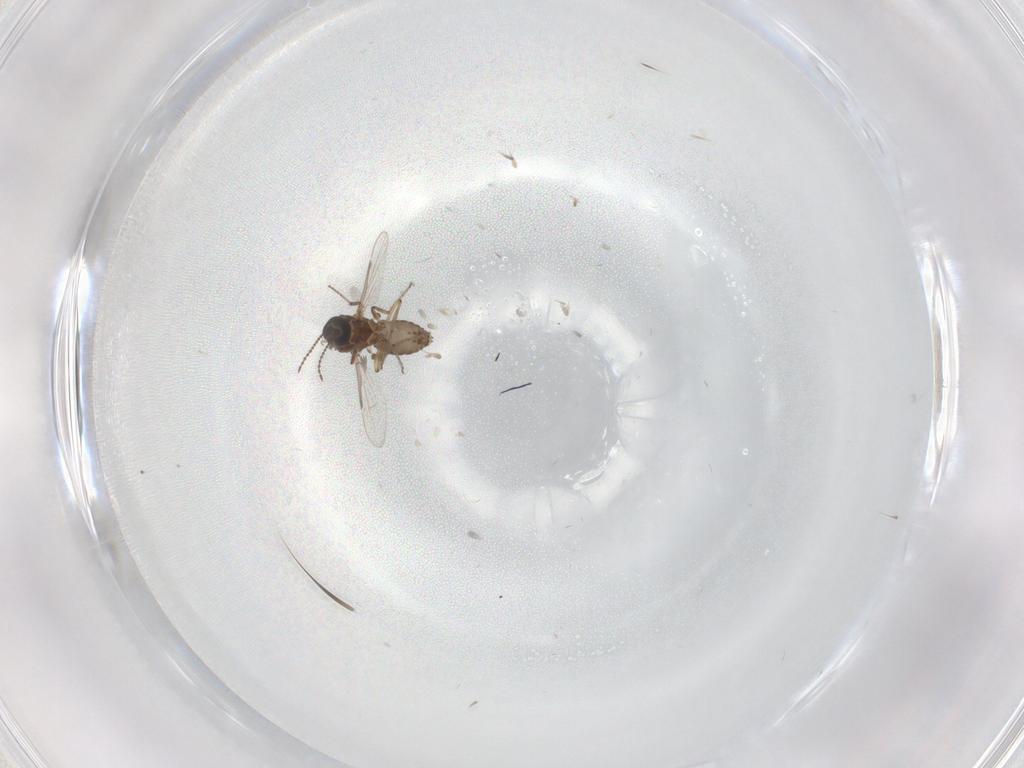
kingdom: Animalia
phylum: Arthropoda
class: Insecta
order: Diptera
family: Ceratopogonidae
